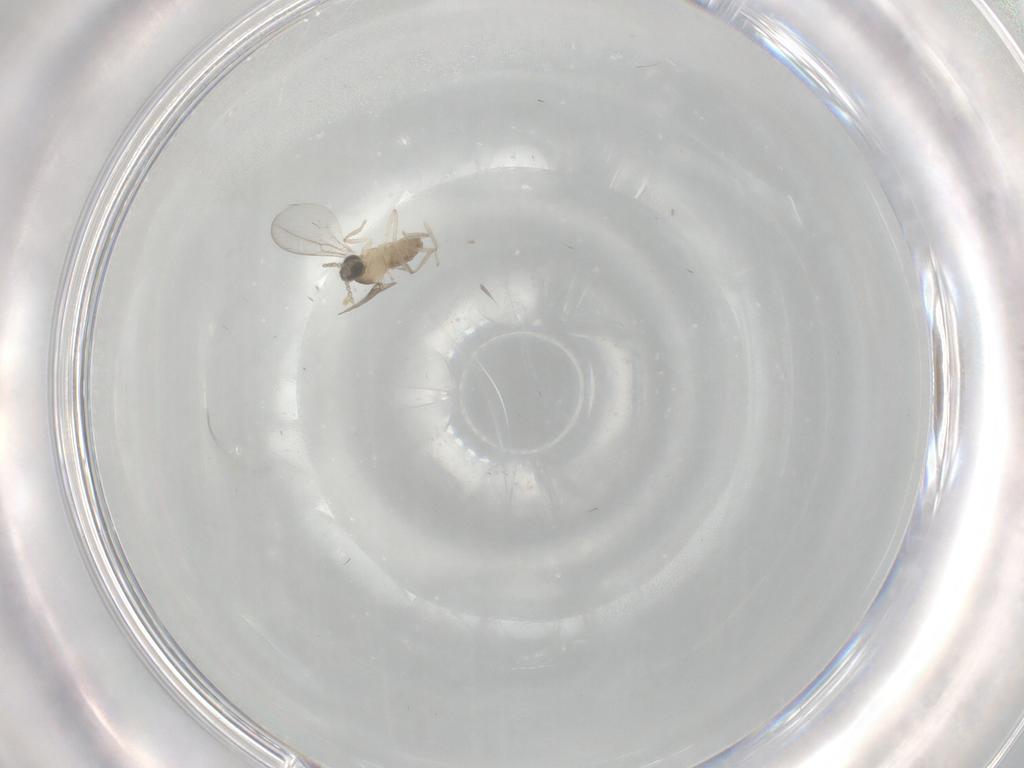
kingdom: Animalia
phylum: Arthropoda
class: Insecta
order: Diptera
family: Cecidomyiidae
